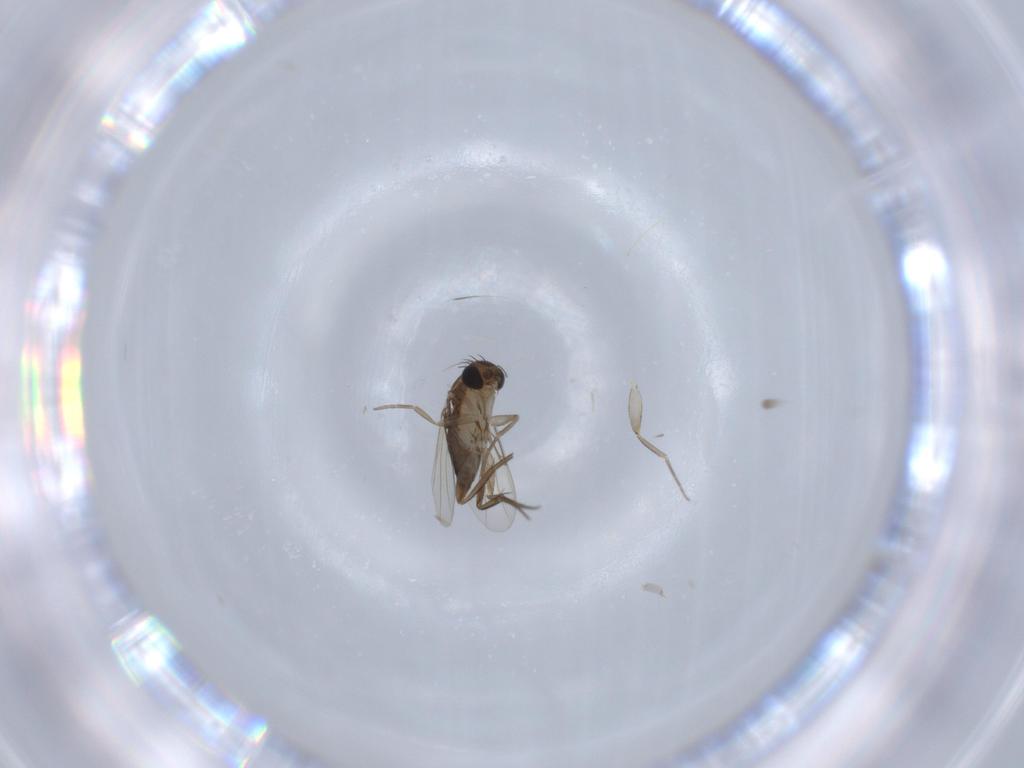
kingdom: Animalia
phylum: Arthropoda
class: Insecta
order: Diptera
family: Phoridae
